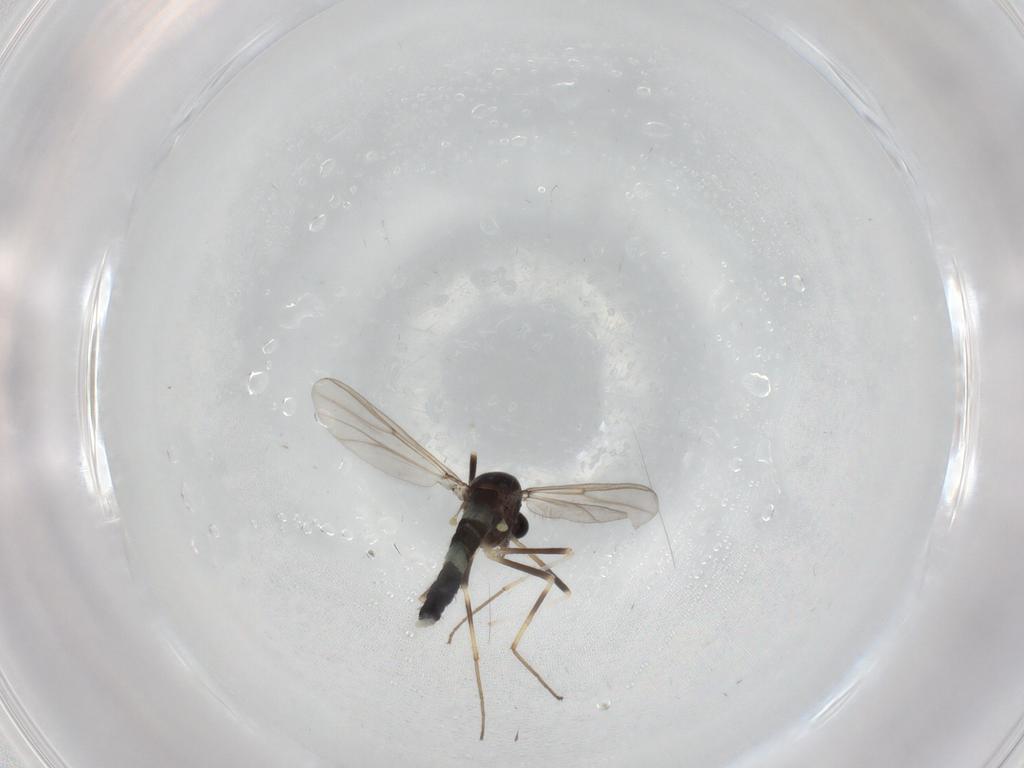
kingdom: Animalia
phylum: Arthropoda
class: Insecta
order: Diptera
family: Chironomidae
